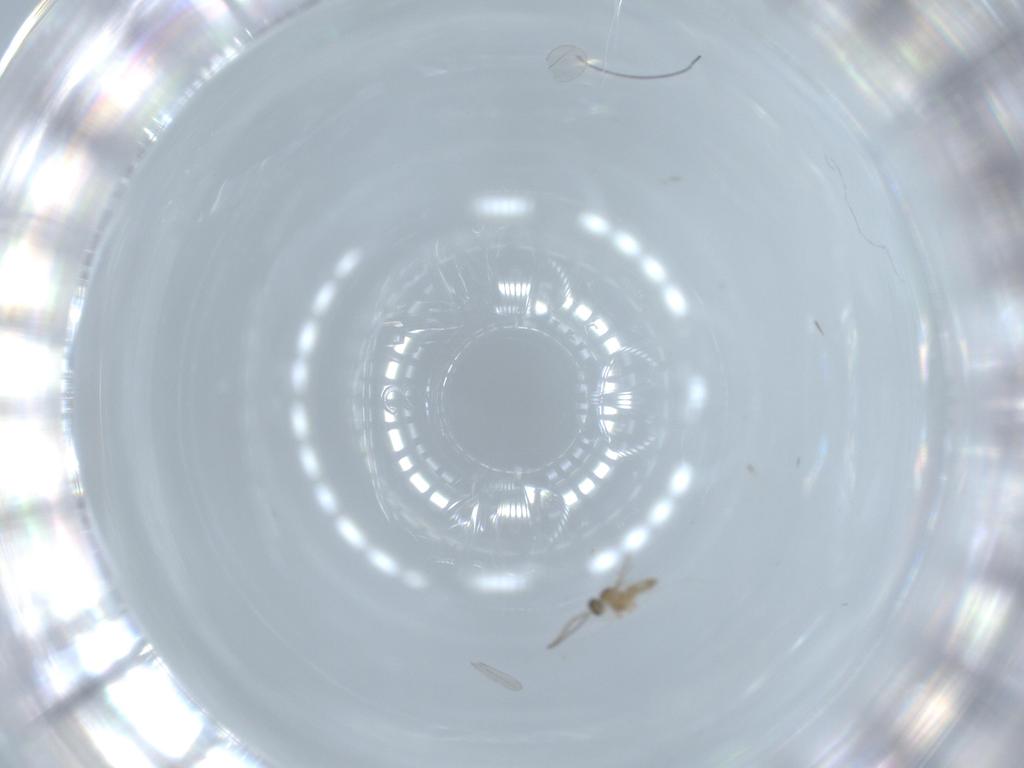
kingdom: Animalia
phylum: Arthropoda
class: Insecta
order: Diptera
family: Cecidomyiidae
